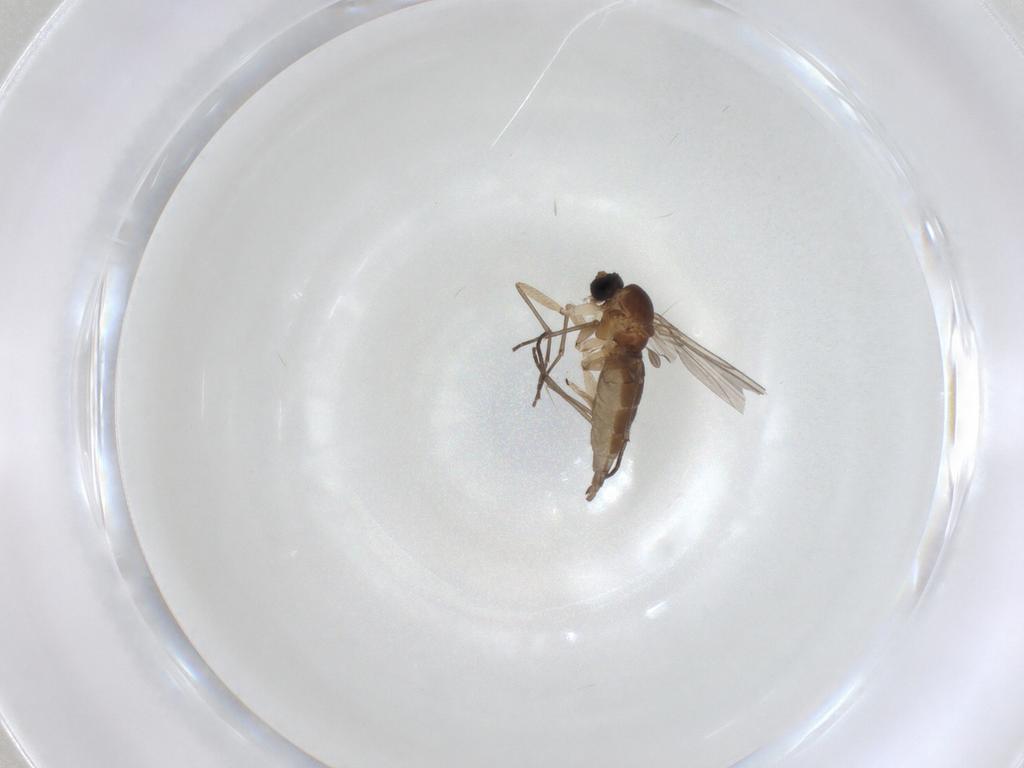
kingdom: Animalia
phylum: Arthropoda
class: Insecta
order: Diptera
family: Sciaridae
